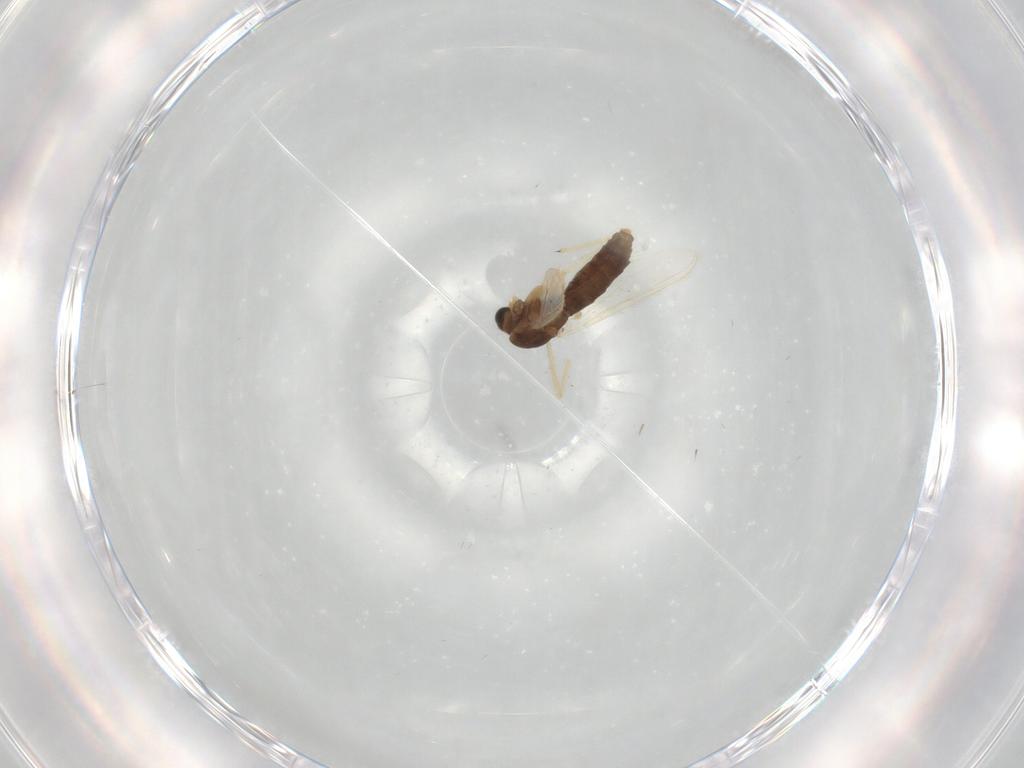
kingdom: Animalia
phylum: Arthropoda
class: Insecta
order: Diptera
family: Chironomidae
